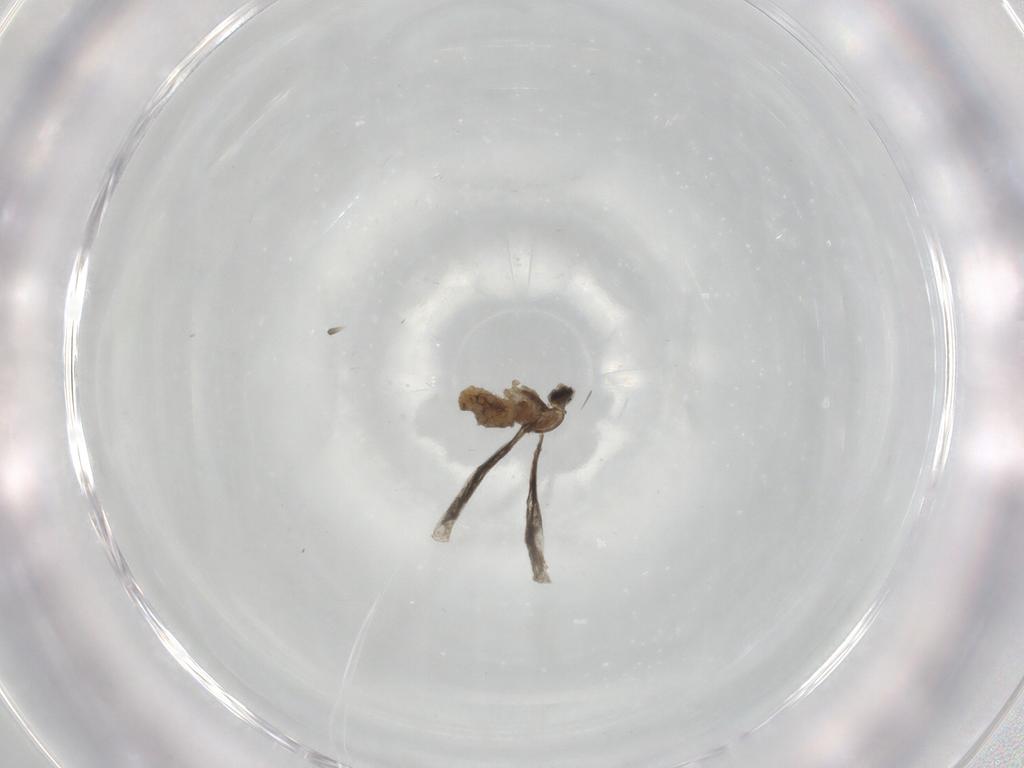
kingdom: Animalia
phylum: Arthropoda
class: Insecta
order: Diptera
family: Cecidomyiidae
